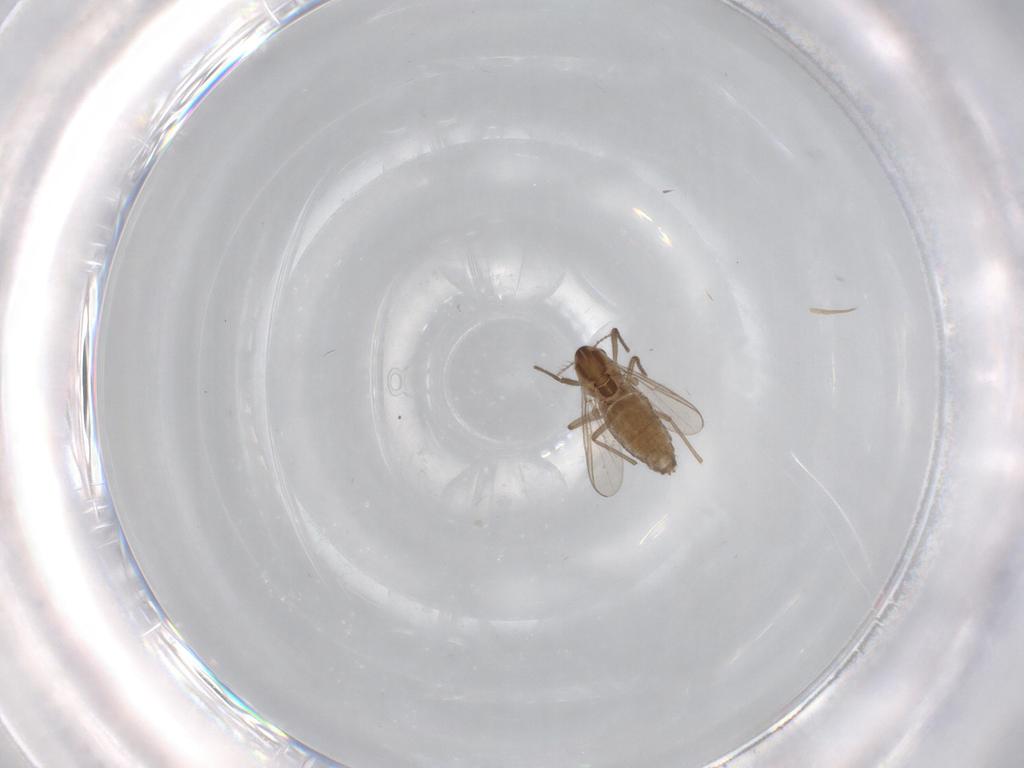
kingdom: Animalia
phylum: Arthropoda
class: Insecta
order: Diptera
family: Chironomidae
